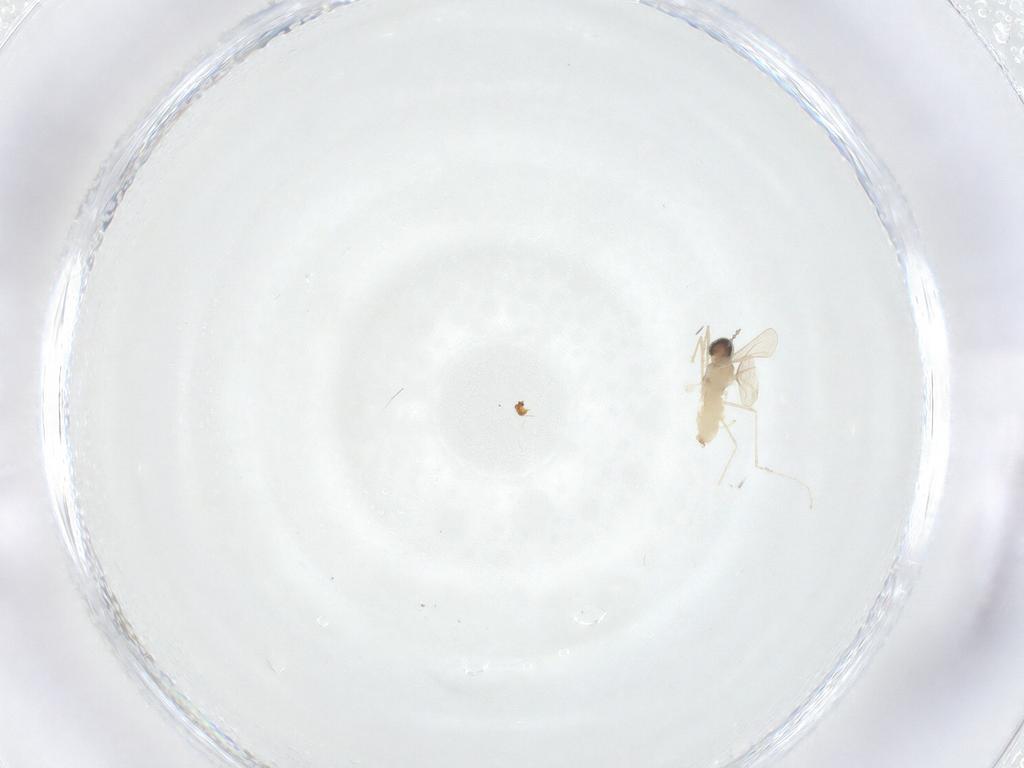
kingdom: Animalia
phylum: Arthropoda
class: Insecta
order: Diptera
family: Cecidomyiidae
